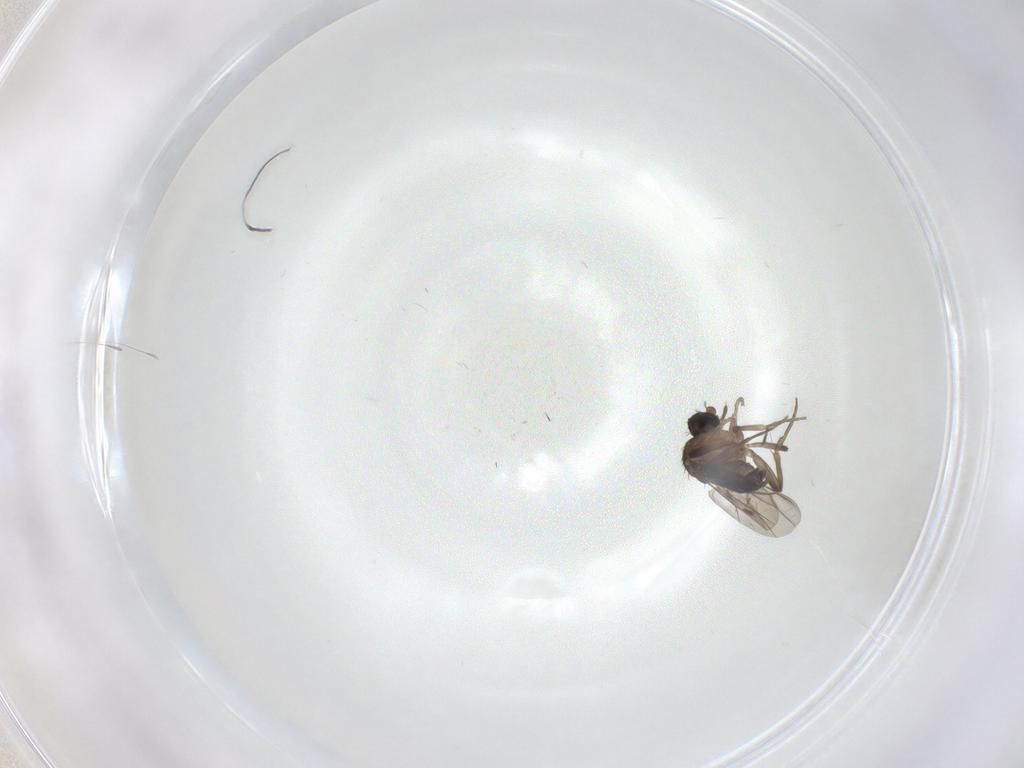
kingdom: Animalia
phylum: Arthropoda
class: Insecta
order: Diptera
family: Phoridae
